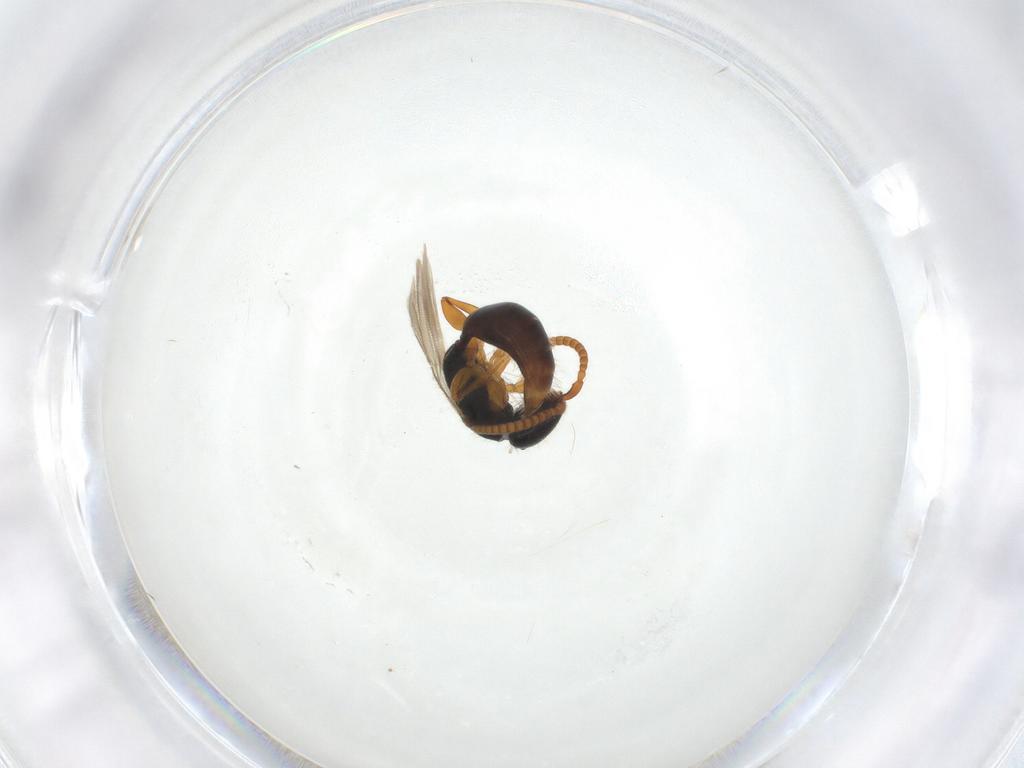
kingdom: Animalia
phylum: Arthropoda
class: Insecta
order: Hymenoptera
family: Bethylidae
